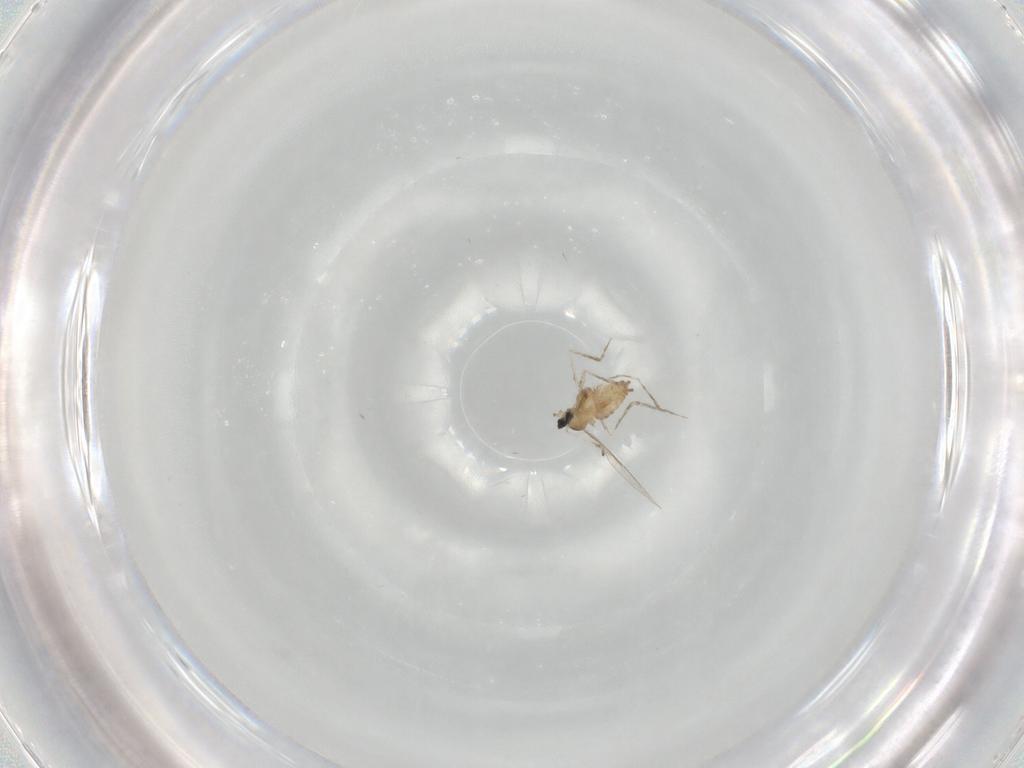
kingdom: Animalia
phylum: Arthropoda
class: Insecta
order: Diptera
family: Cecidomyiidae
